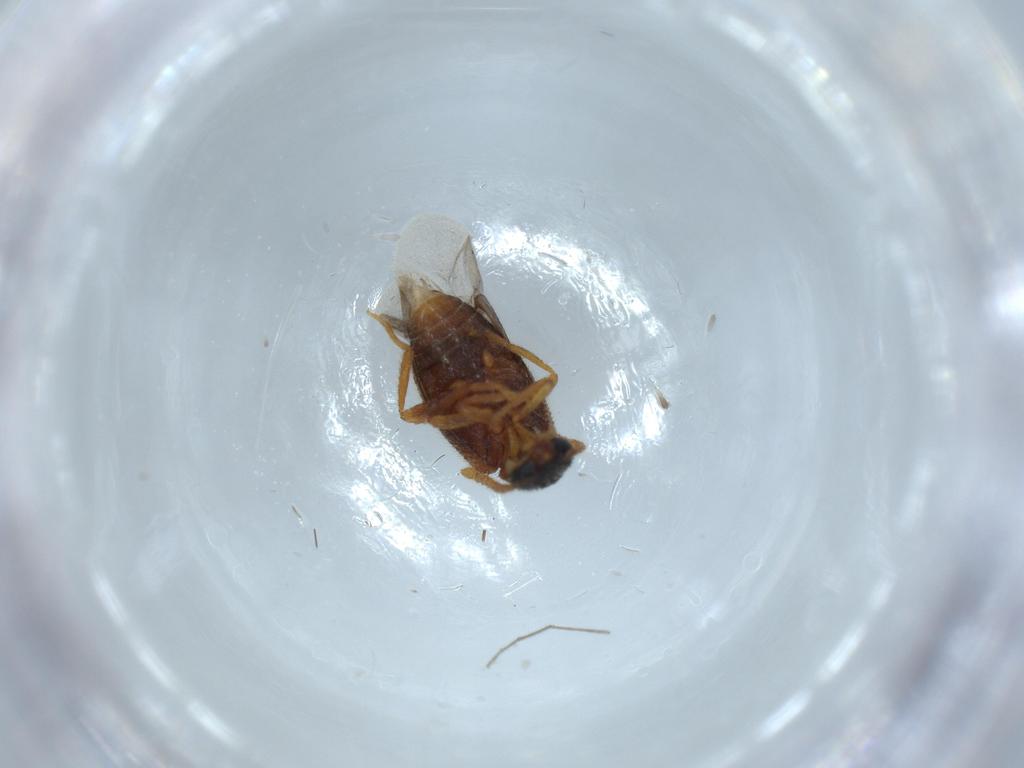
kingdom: Animalia
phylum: Arthropoda
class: Insecta
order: Coleoptera
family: Aderidae
